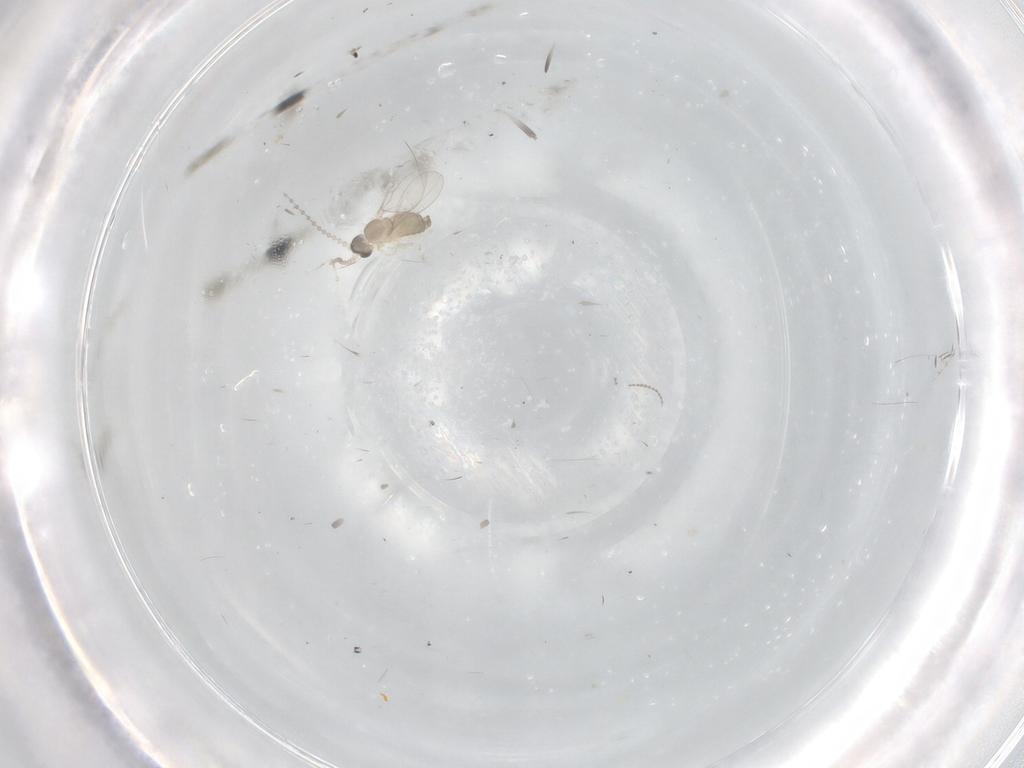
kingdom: Animalia
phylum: Arthropoda
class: Insecta
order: Diptera
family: Cecidomyiidae
